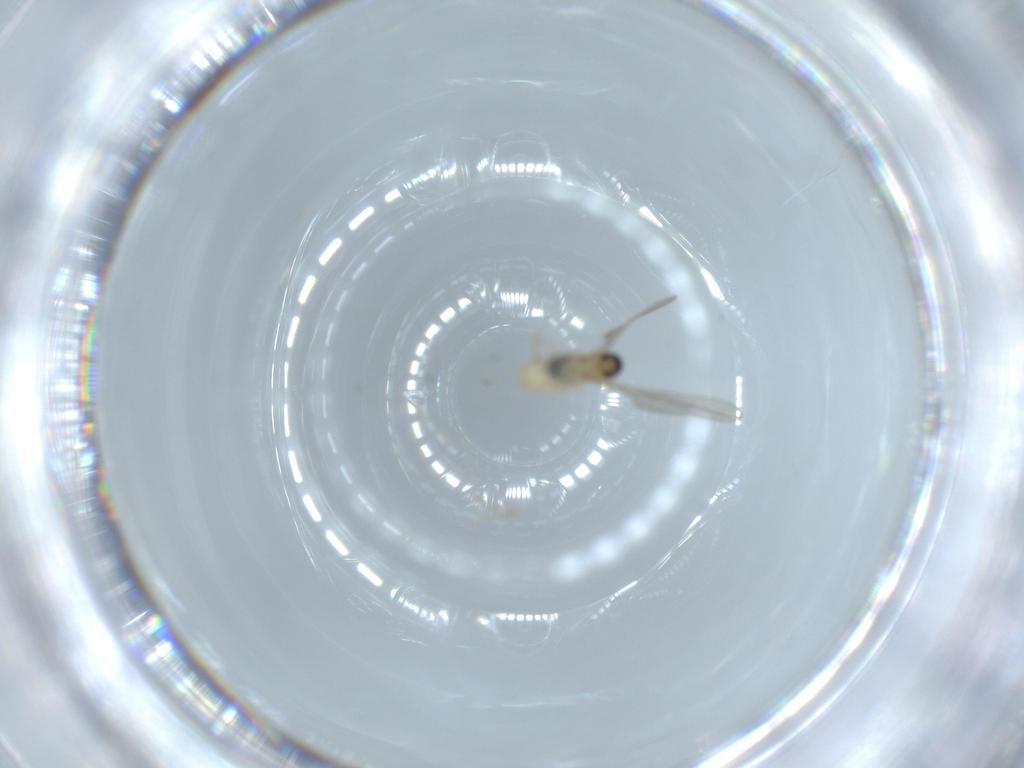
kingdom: Animalia
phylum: Arthropoda
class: Insecta
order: Diptera
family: Cecidomyiidae
